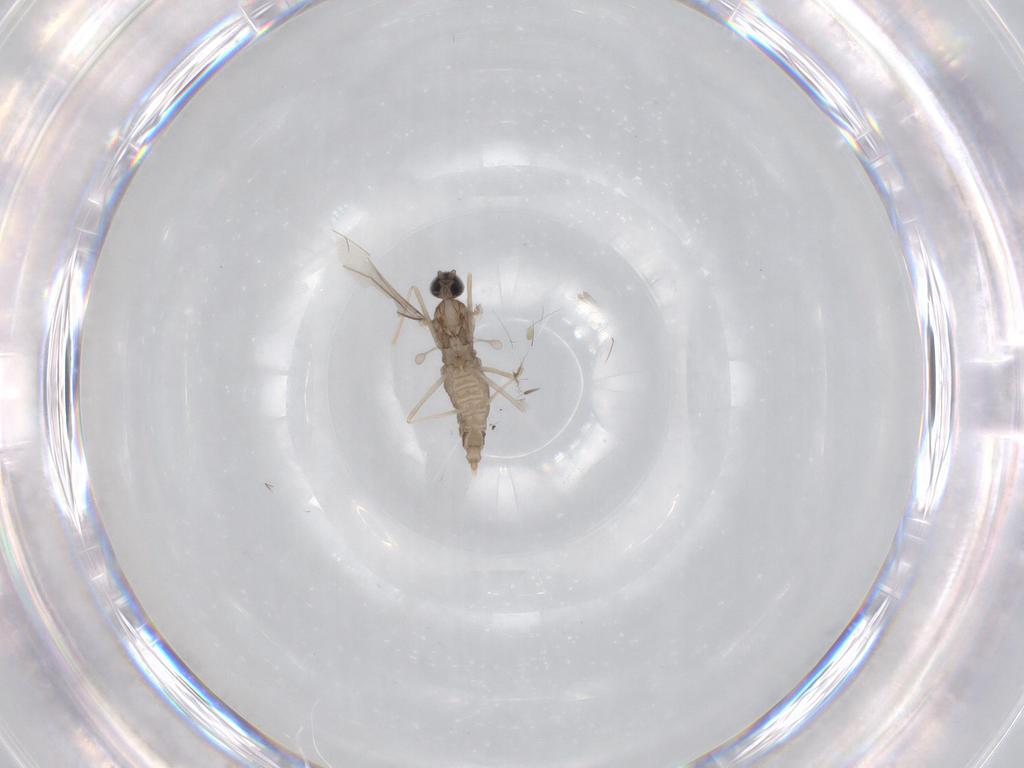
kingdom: Animalia
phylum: Arthropoda
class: Insecta
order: Diptera
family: Cecidomyiidae
